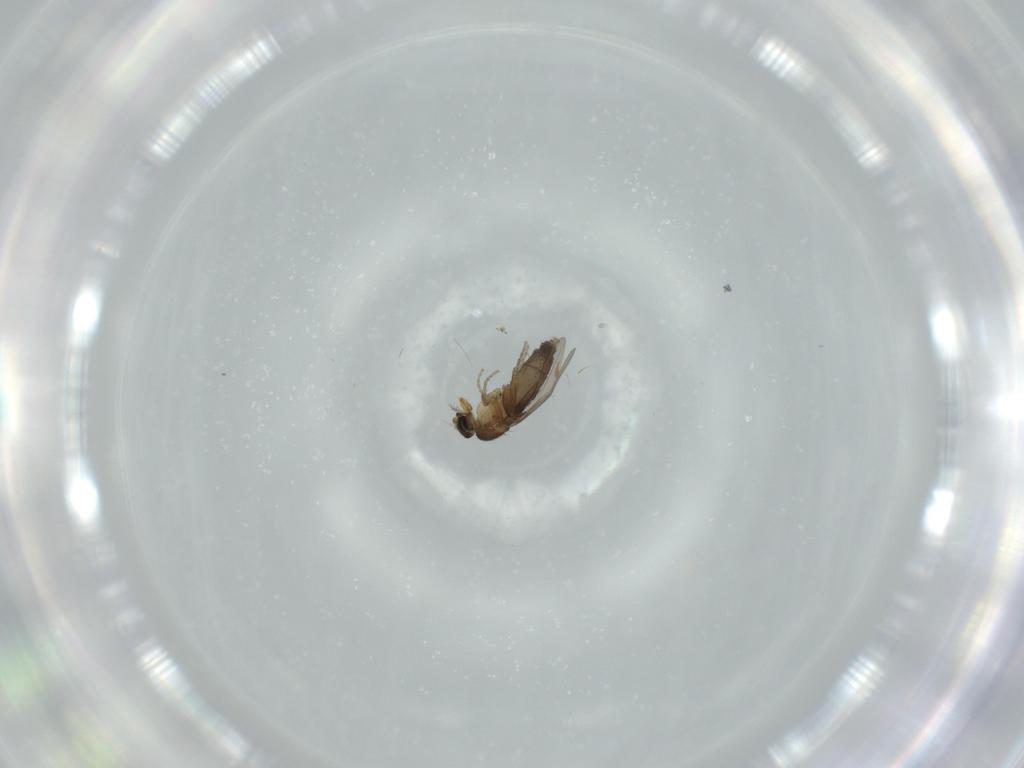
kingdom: Animalia
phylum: Arthropoda
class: Insecta
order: Diptera
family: Phoridae
